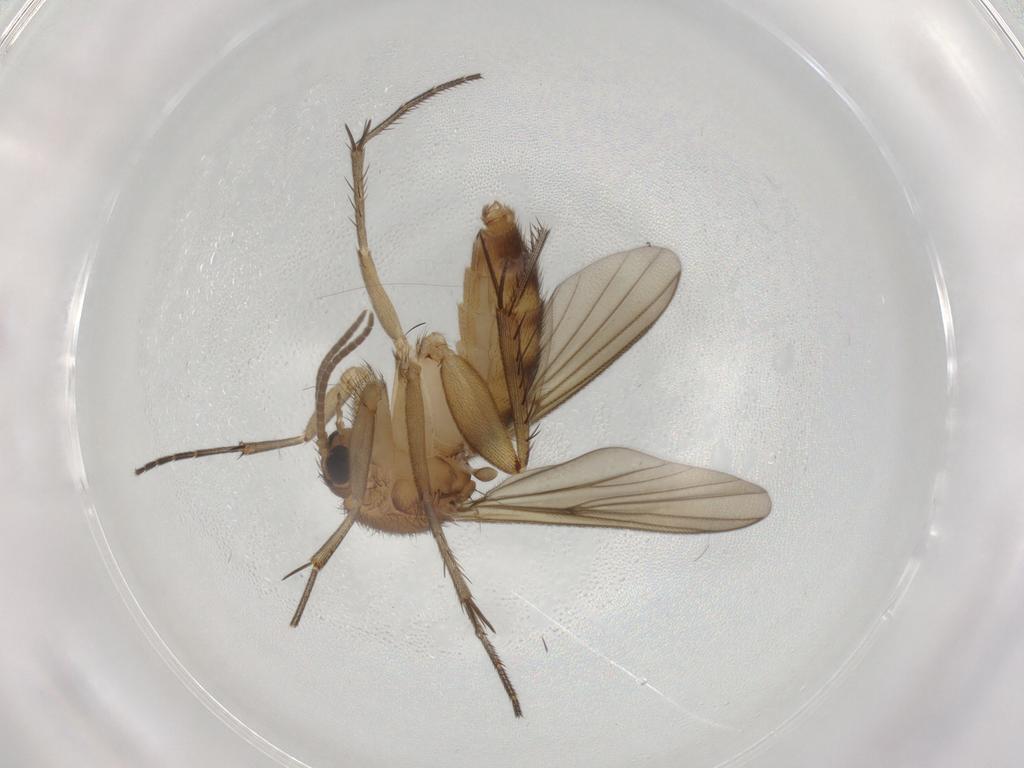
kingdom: Animalia
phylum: Arthropoda
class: Insecta
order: Diptera
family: Mycetophilidae
